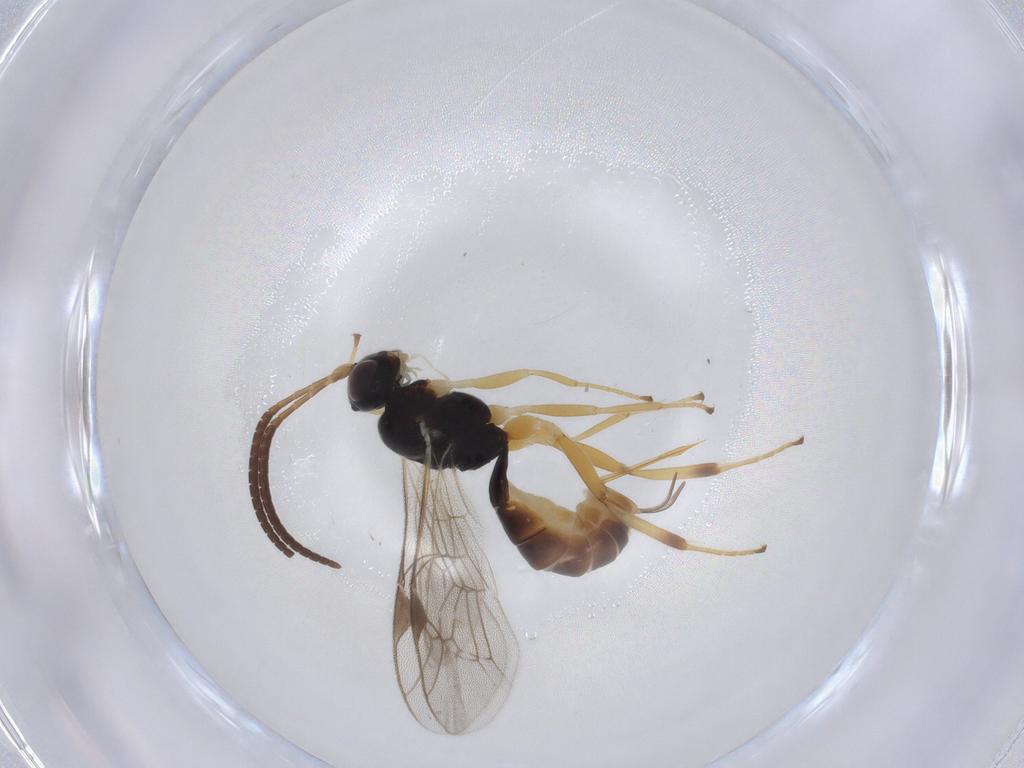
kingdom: Animalia
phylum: Arthropoda
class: Insecta
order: Hymenoptera
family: Ichneumonidae
